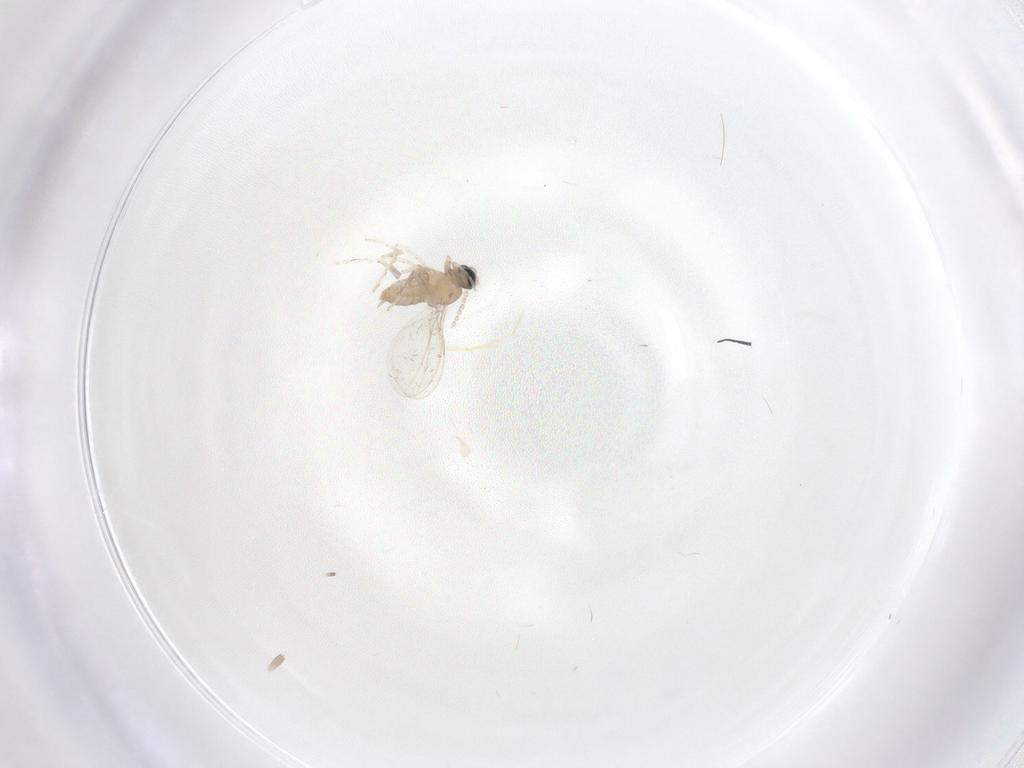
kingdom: Animalia
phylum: Arthropoda
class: Insecta
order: Diptera
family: Cecidomyiidae
